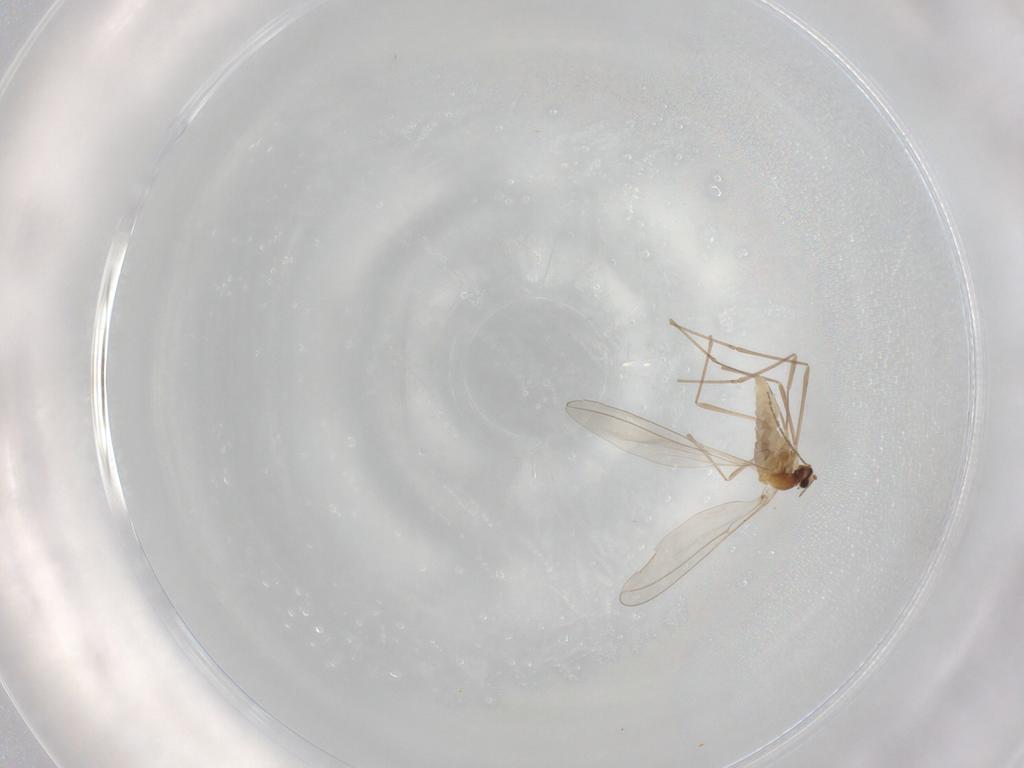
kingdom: Animalia
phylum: Arthropoda
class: Insecta
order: Diptera
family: Cecidomyiidae
